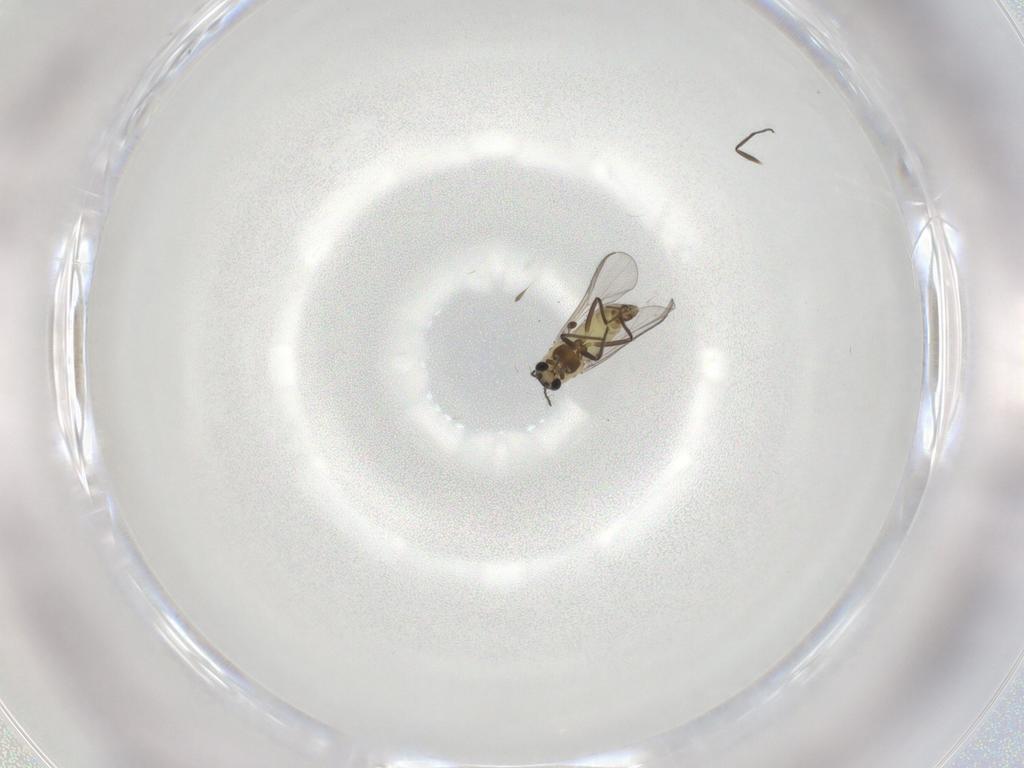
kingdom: Animalia
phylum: Arthropoda
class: Insecta
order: Diptera
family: Chironomidae
